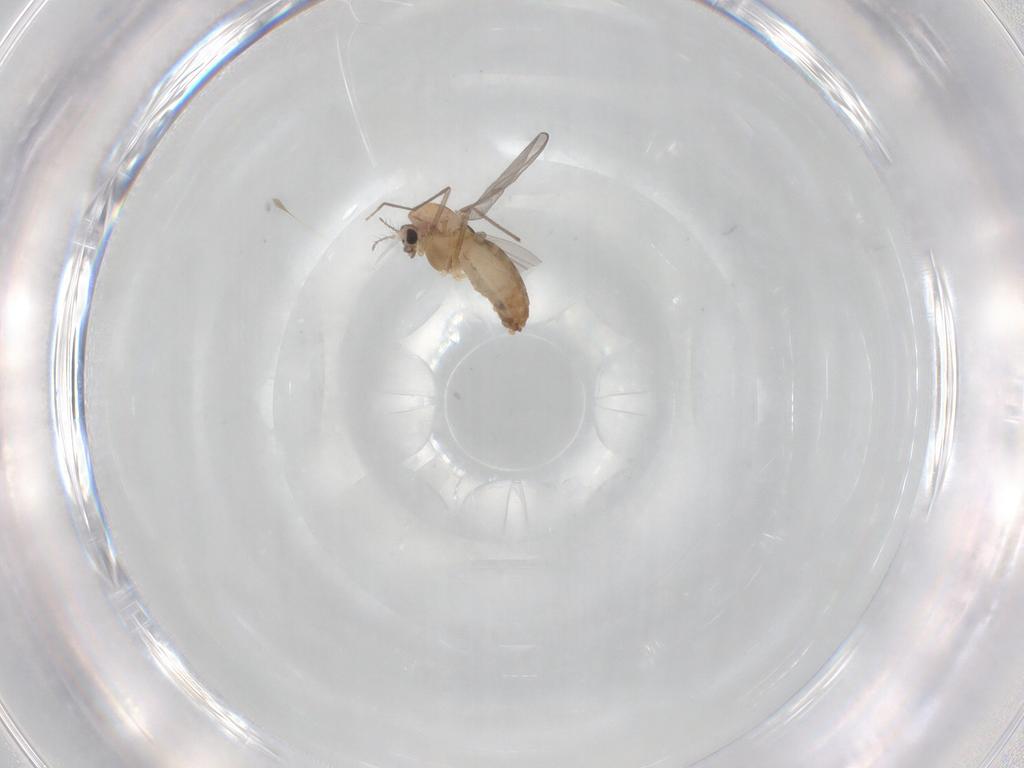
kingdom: Animalia
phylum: Arthropoda
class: Insecta
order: Diptera
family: Chironomidae
